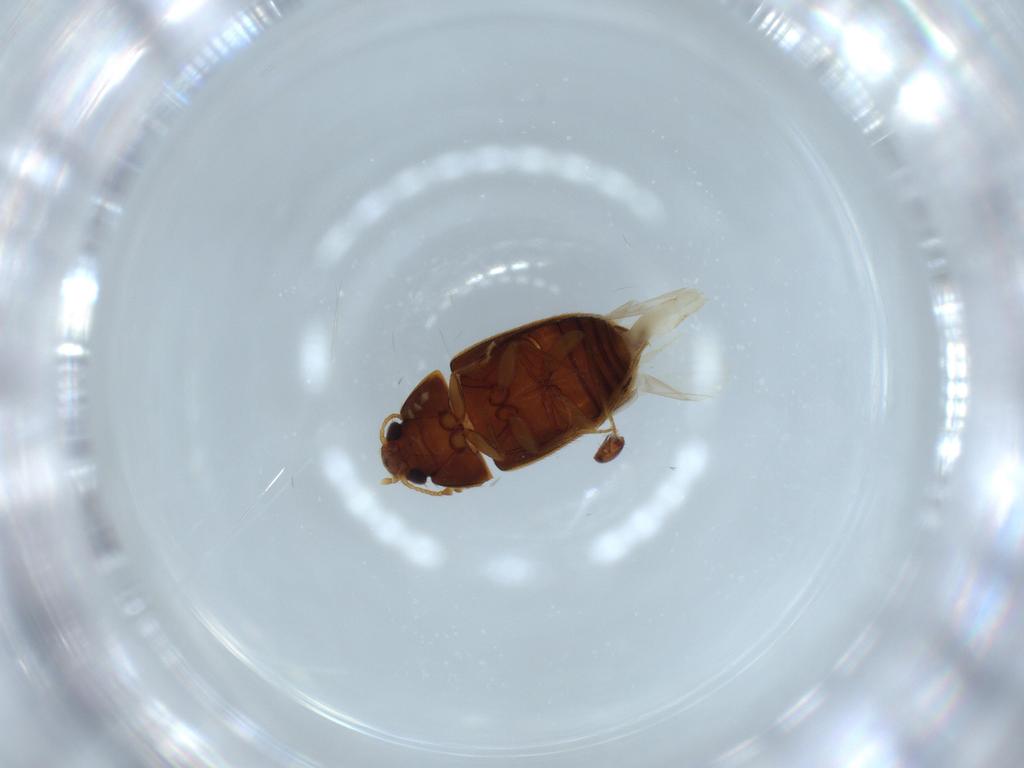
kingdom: Animalia
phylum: Arthropoda
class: Insecta
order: Coleoptera
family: Mycetophagidae
